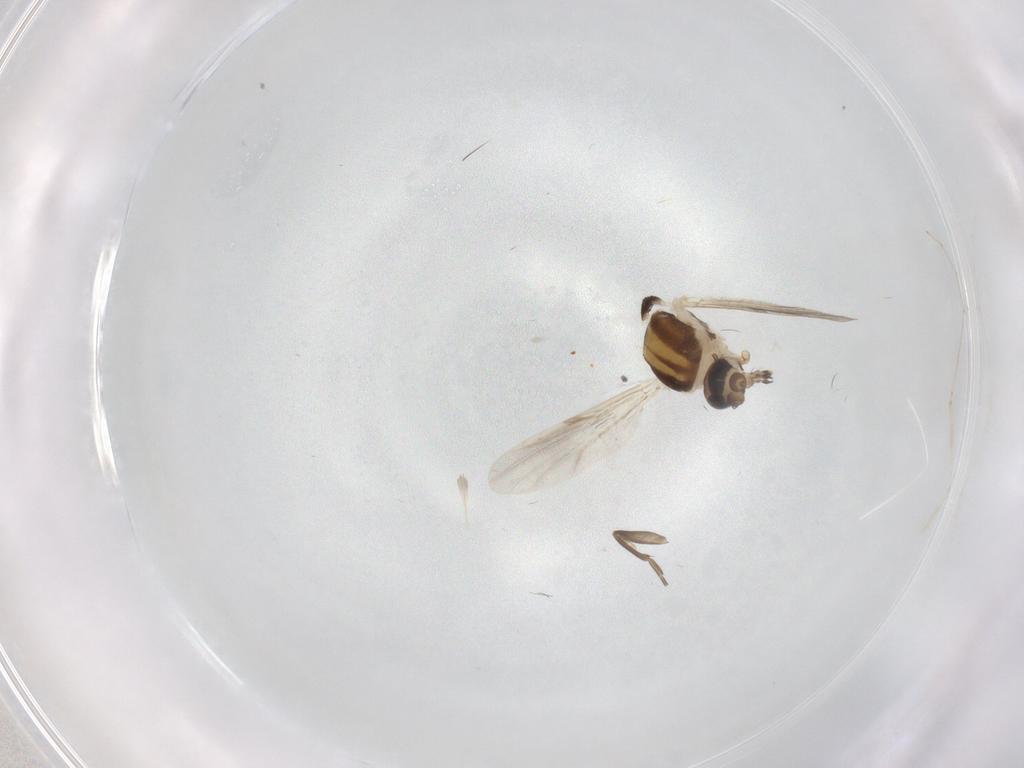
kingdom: Animalia
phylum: Arthropoda
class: Insecta
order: Diptera
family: Ceratopogonidae
